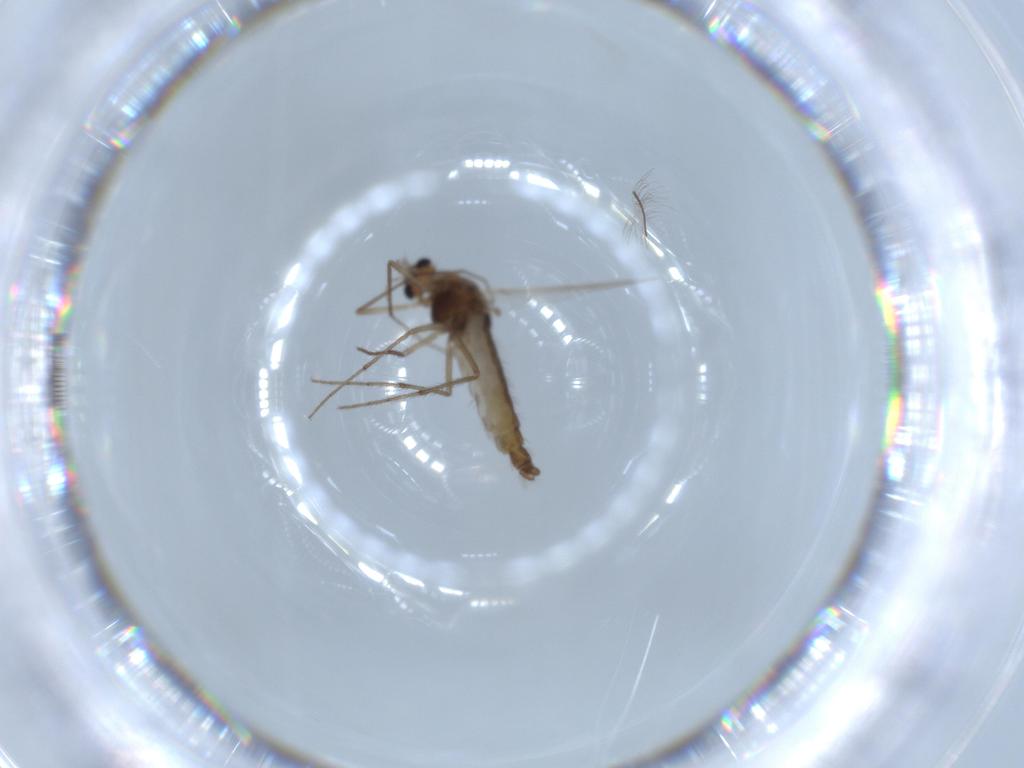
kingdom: Animalia
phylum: Arthropoda
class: Insecta
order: Diptera
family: Chironomidae
